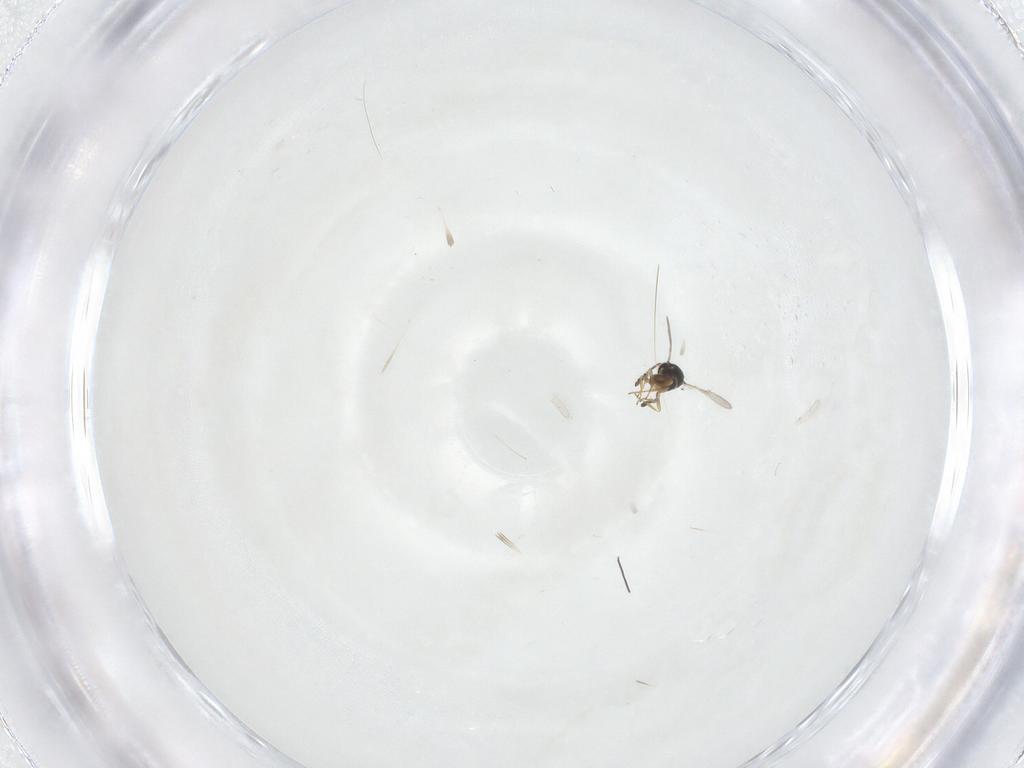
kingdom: Animalia
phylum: Arthropoda
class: Insecta
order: Hymenoptera
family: Scelionidae
